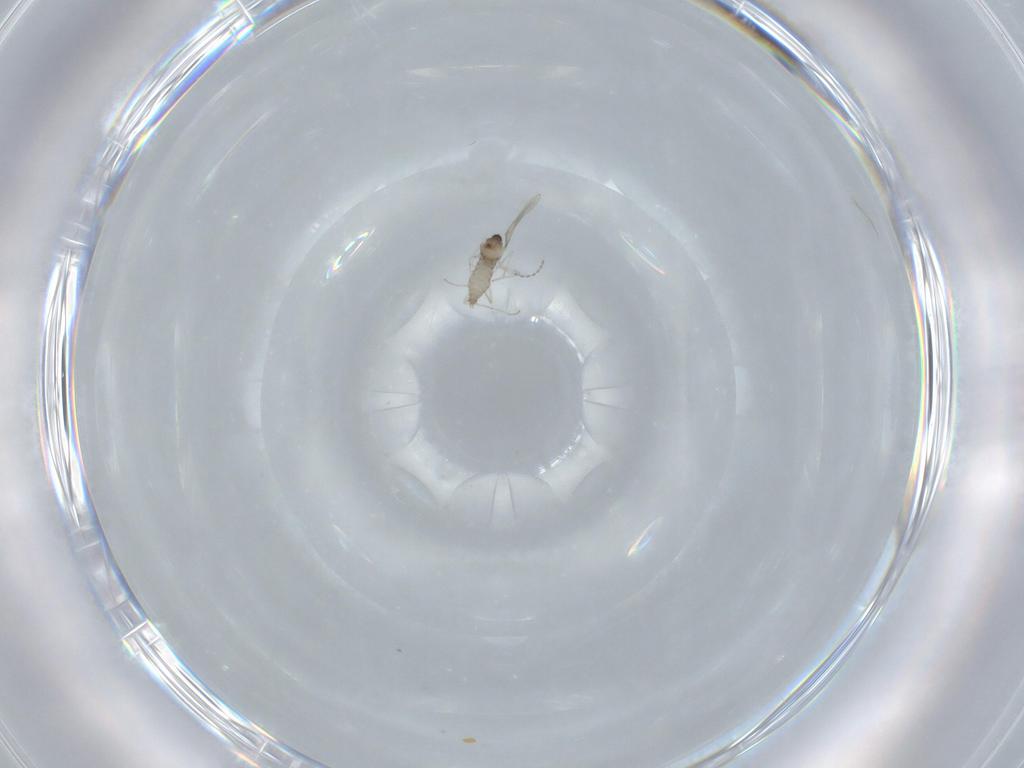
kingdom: Animalia
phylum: Arthropoda
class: Insecta
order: Diptera
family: Cecidomyiidae
